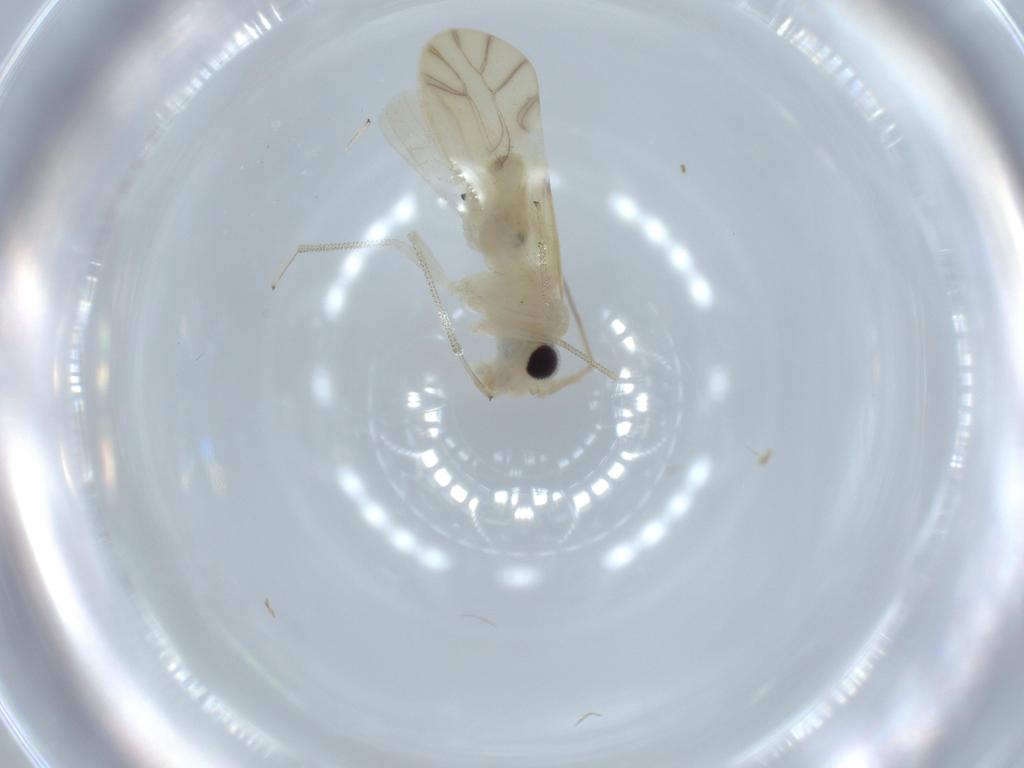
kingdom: Animalia
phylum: Arthropoda
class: Insecta
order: Psocodea
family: Caeciliusidae
